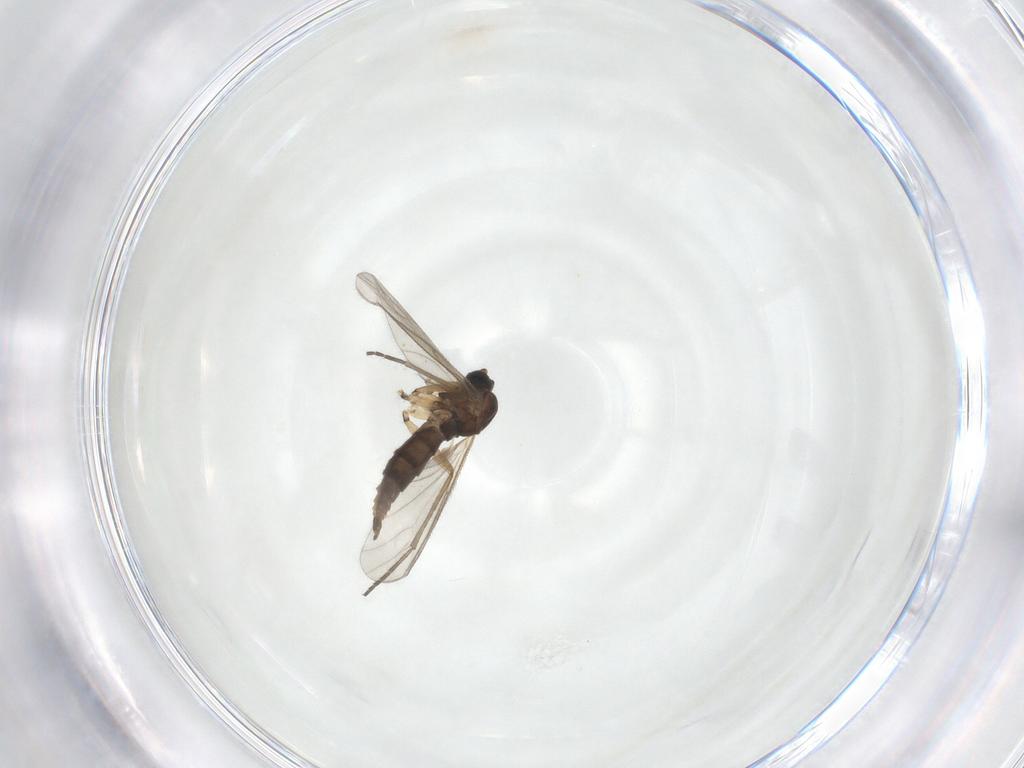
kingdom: Animalia
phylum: Arthropoda
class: Insecta
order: Diptera
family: Sciaridae
